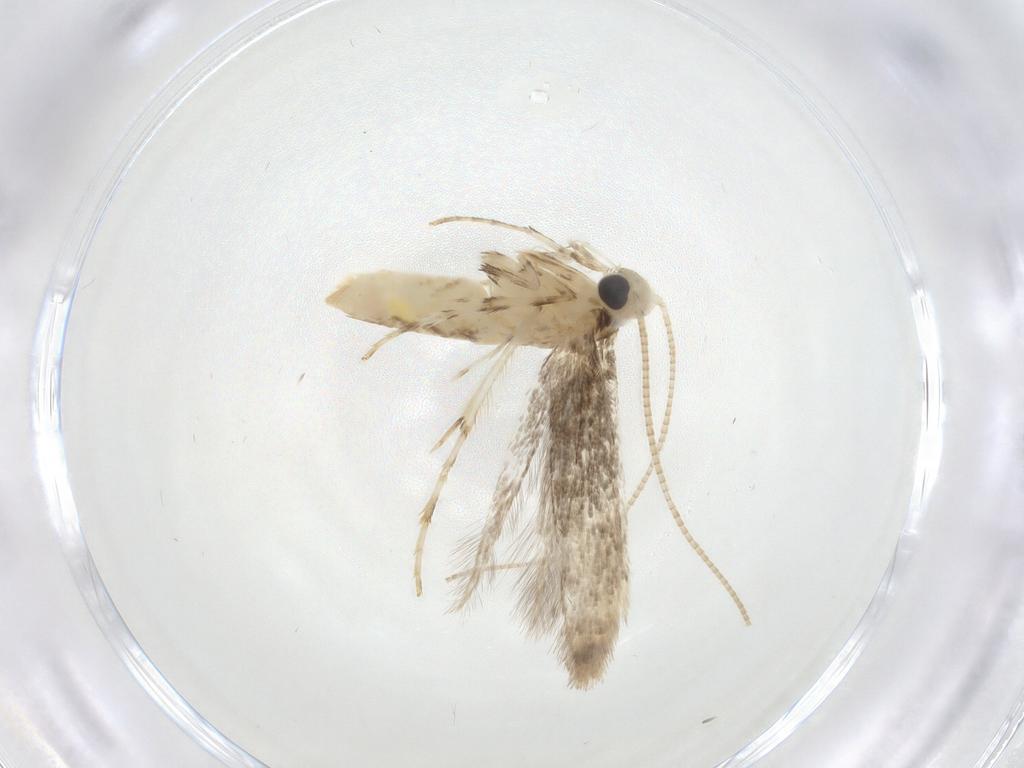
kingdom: Animalia
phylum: Arthropoda
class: Insecta
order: Lepidoptera
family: Gracillariidae
